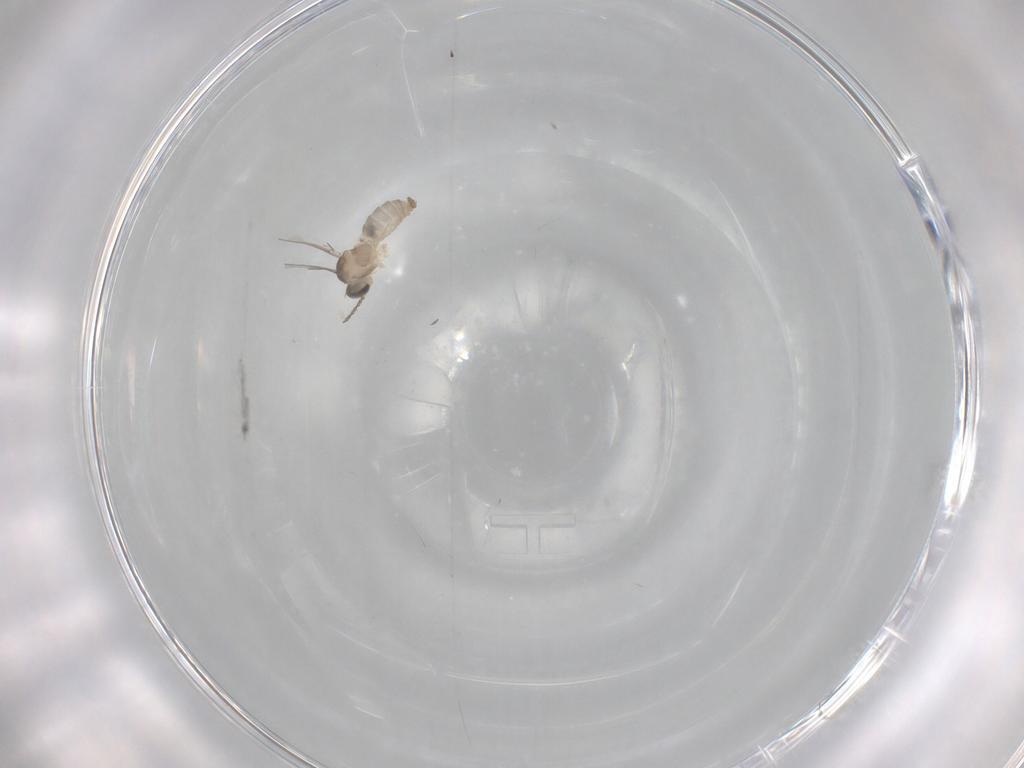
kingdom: Animalia
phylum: Arthropoda
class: Insecta
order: Diptera
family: Cecidomyiidae
